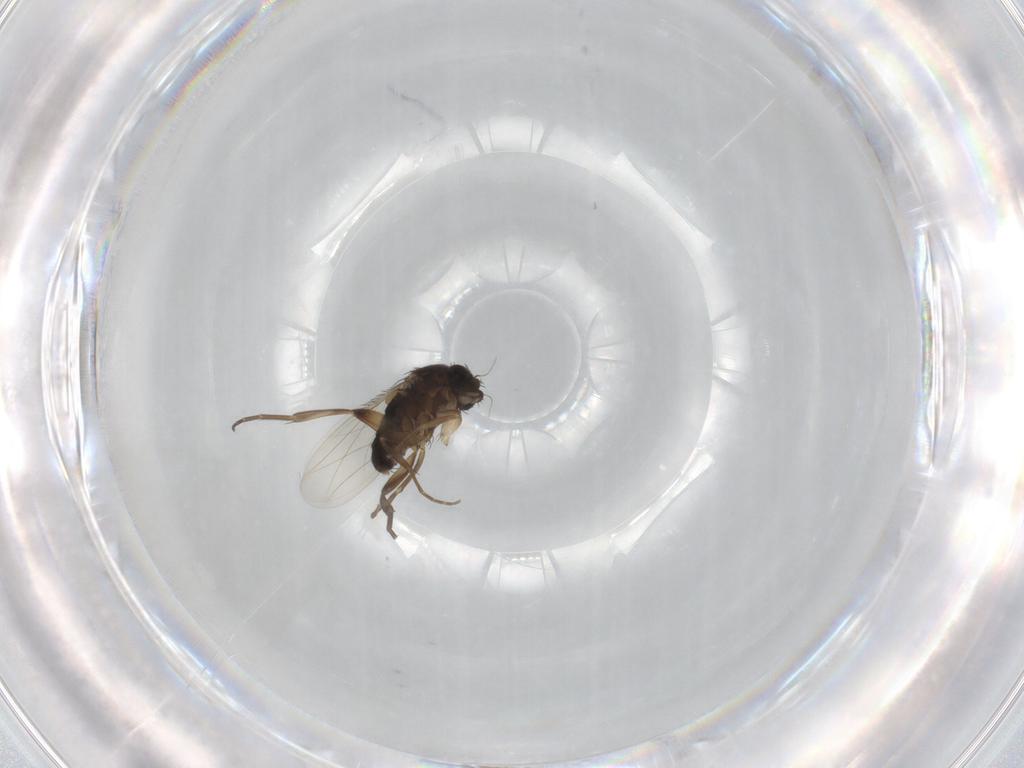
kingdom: Animalia
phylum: Arthropoda
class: Insecta
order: Diptera
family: Phoridae
